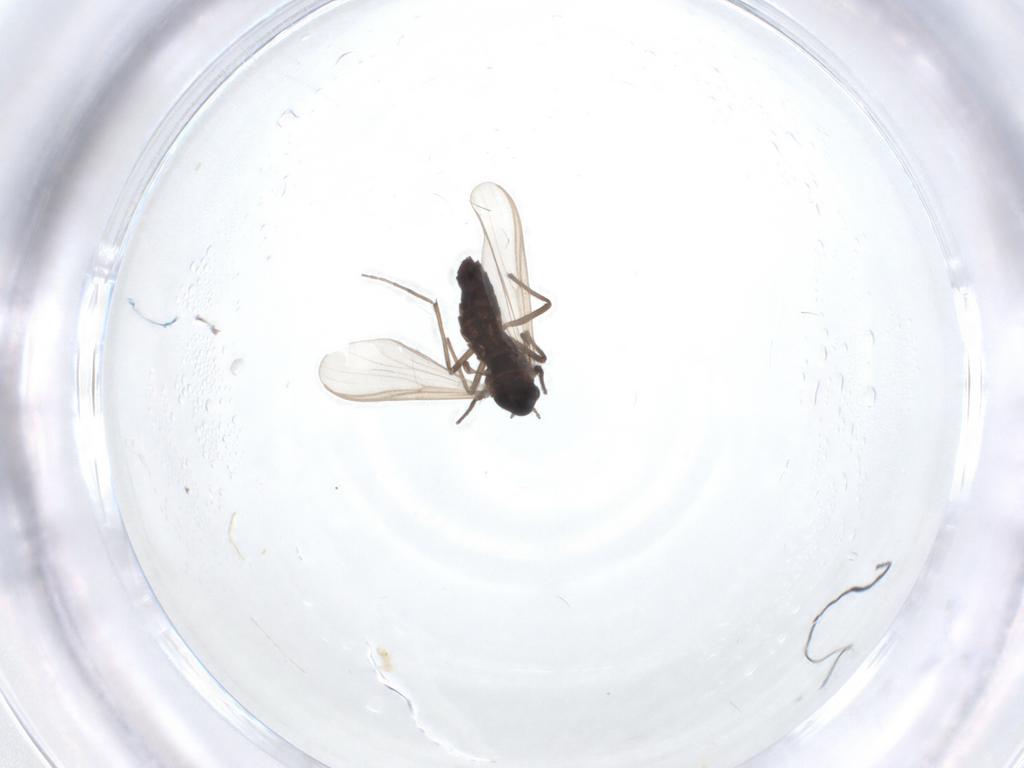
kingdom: Animalia
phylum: Arthropoda
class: Insecta
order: Diptera
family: Chironomidae
